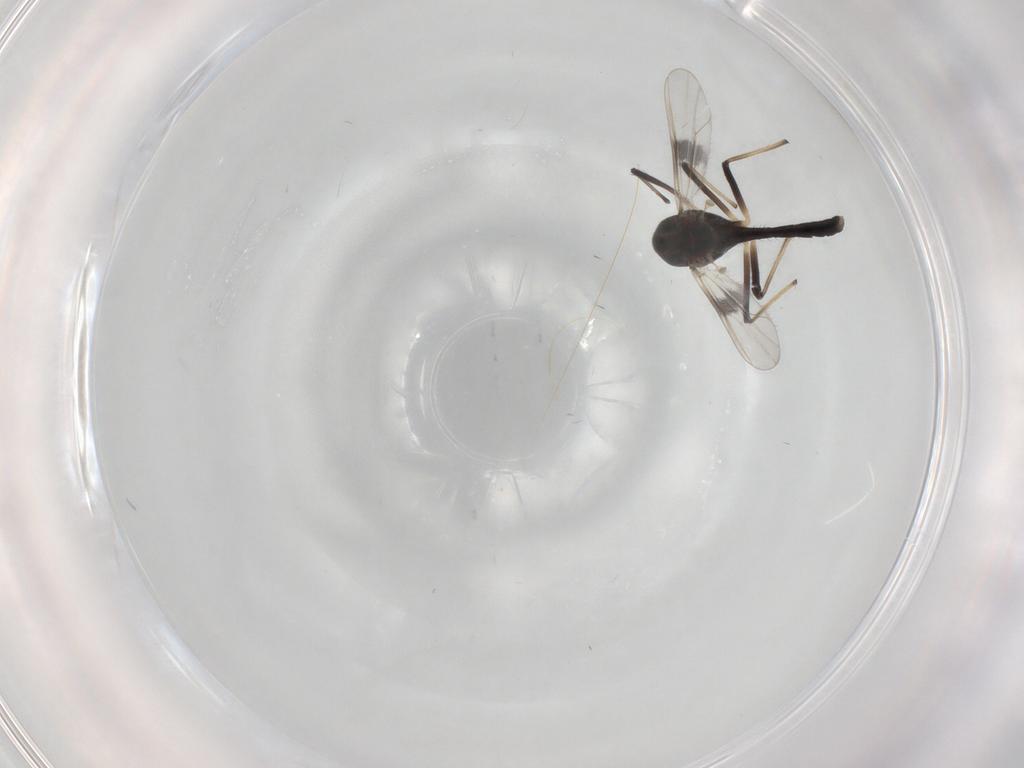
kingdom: Animalia
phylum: Arthropoda
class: Insecta
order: Diptera
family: Chironomidae
